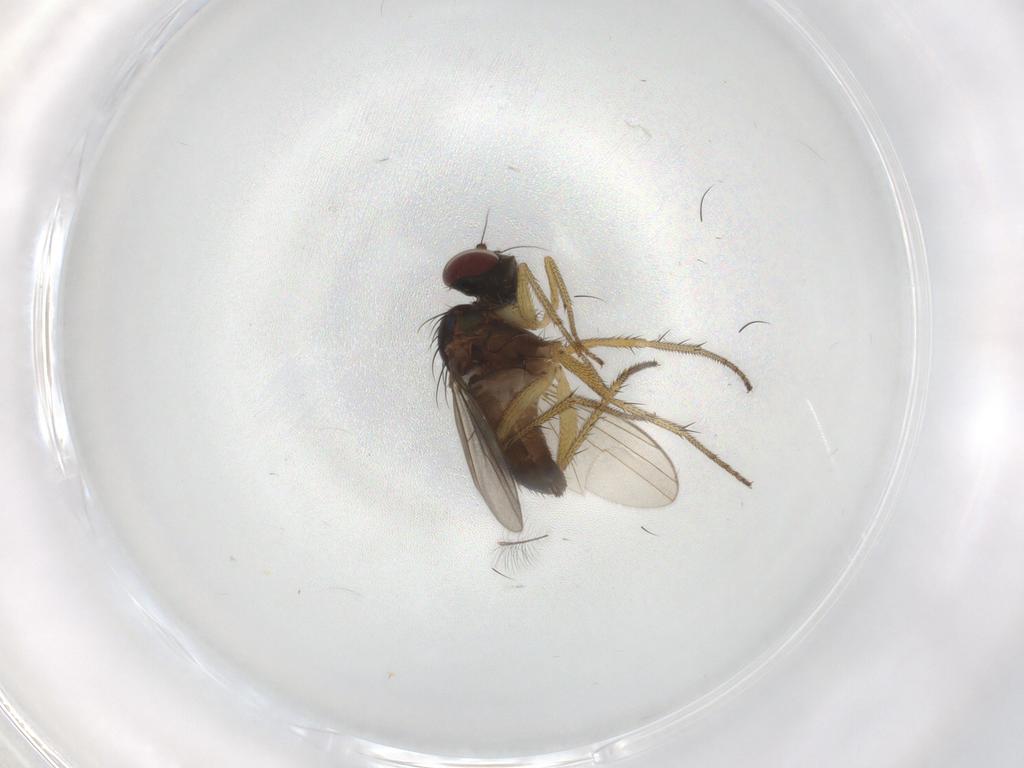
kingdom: Animalia
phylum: Arthropoda
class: Insecta
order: Diptera
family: Dolichopodidae
